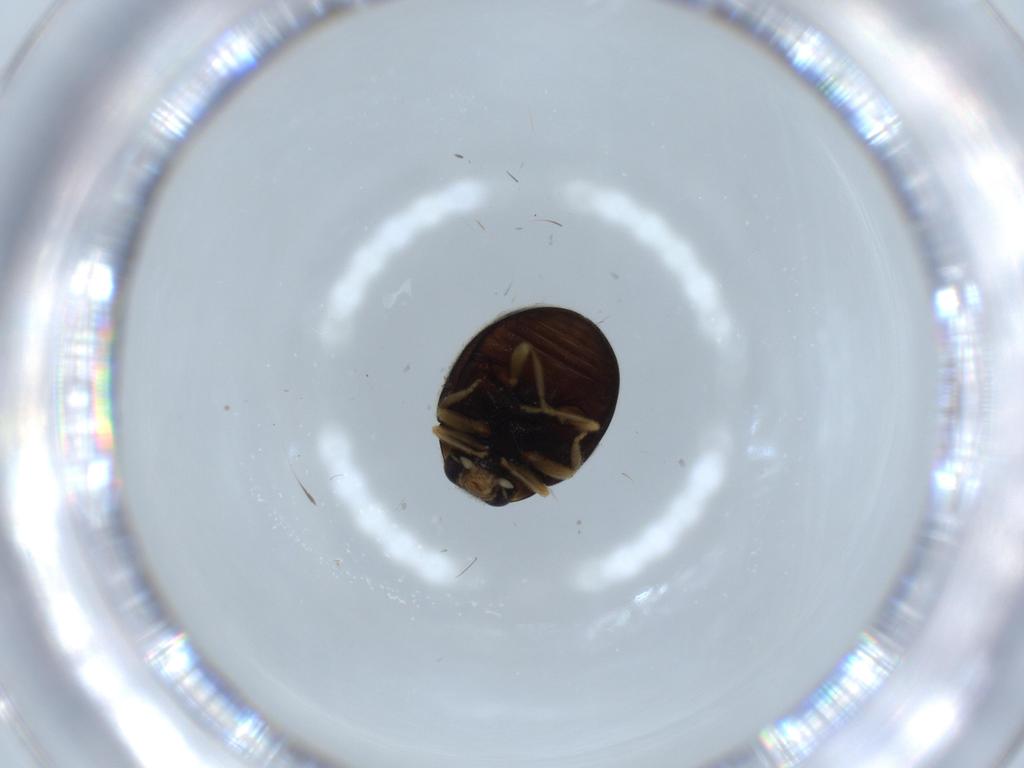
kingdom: Animalia
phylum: Arthropoda
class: Insecta
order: Coleoptera
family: Coccinellidae
